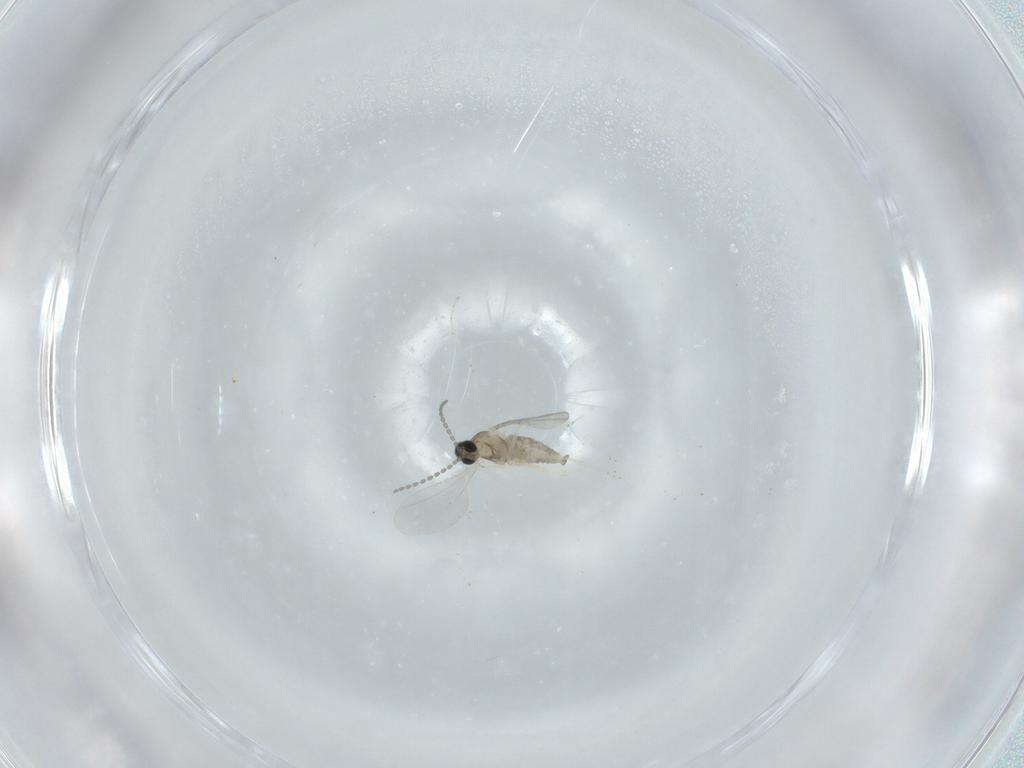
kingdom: Animalia
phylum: Arthropoda
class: Insecta
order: Diptera
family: Cecidomyiidae
